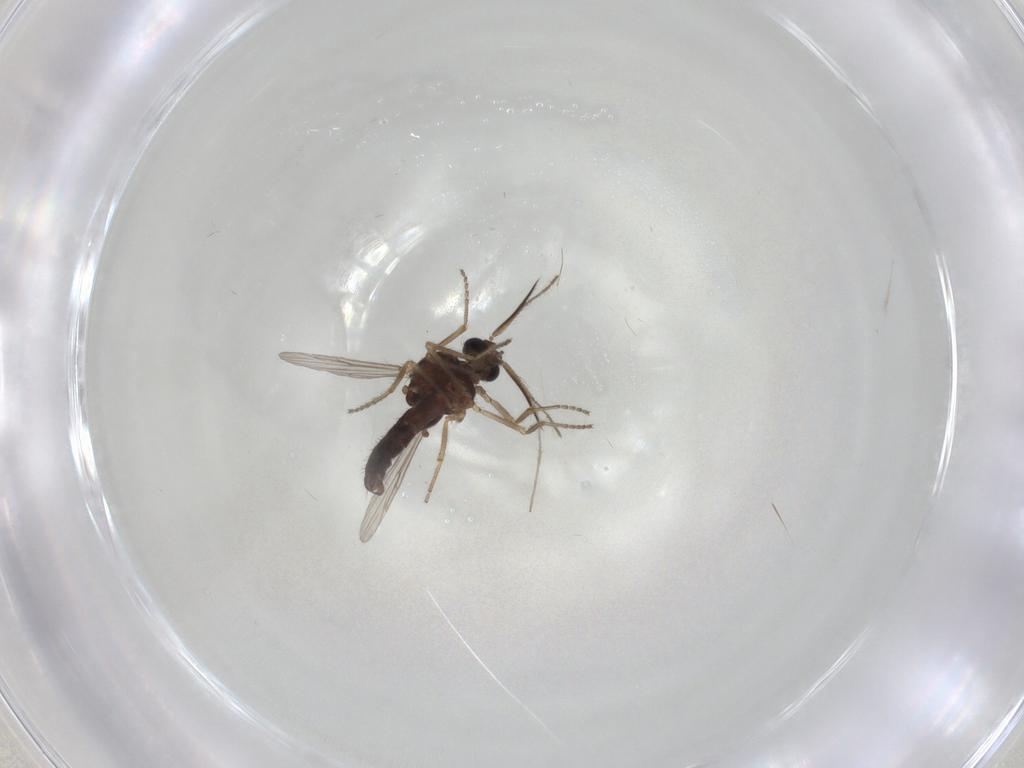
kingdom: Animalia
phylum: Arthropoda
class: Insecta
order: Diptera
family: Ceratopogonidae
